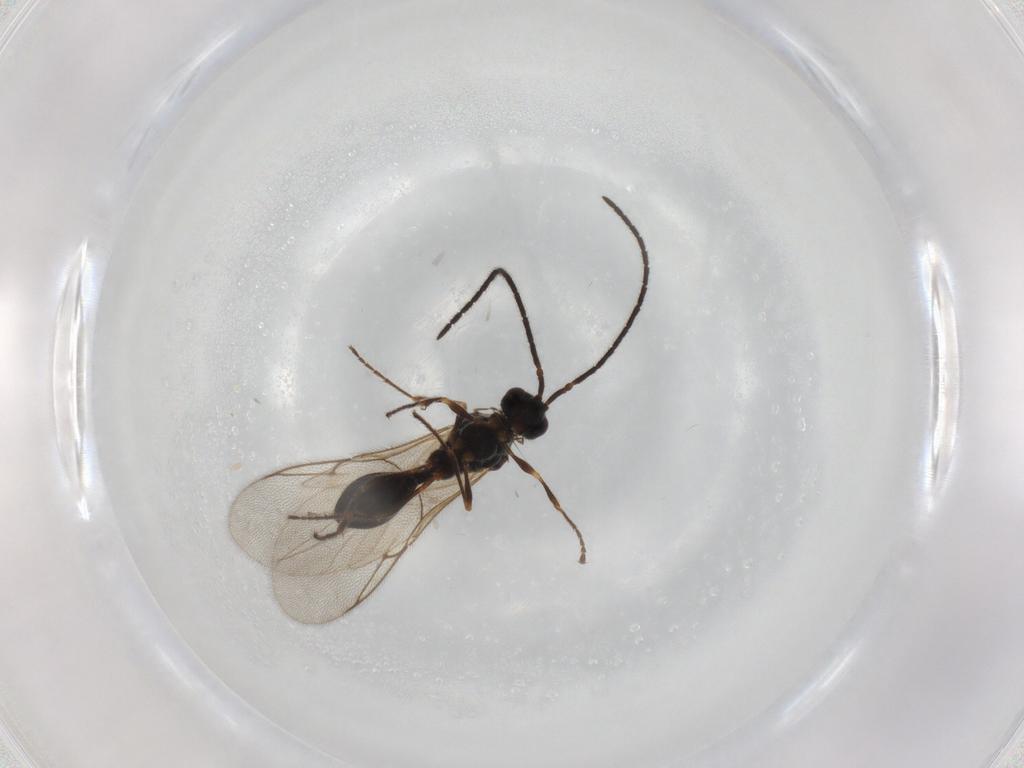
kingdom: Animalia
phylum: Arthropoda
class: Insecta
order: Hymenoptera
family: Diapriidae
